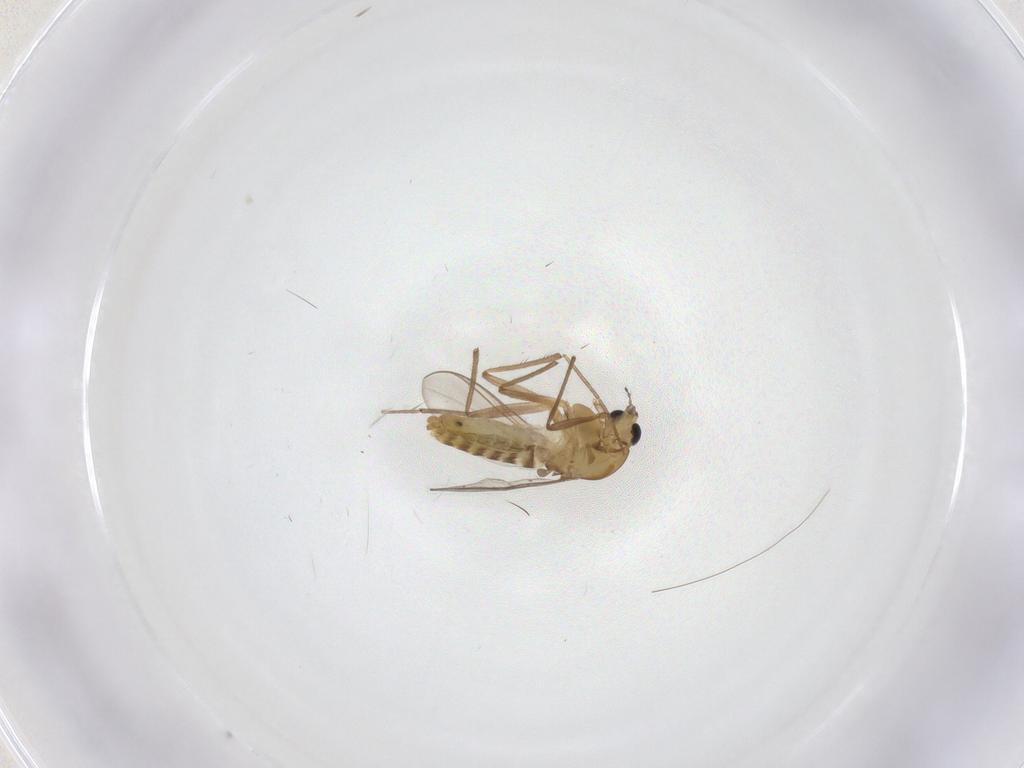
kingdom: Animalia
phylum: Arthropoda
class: Insecta
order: Diptera
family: Chironomidae
